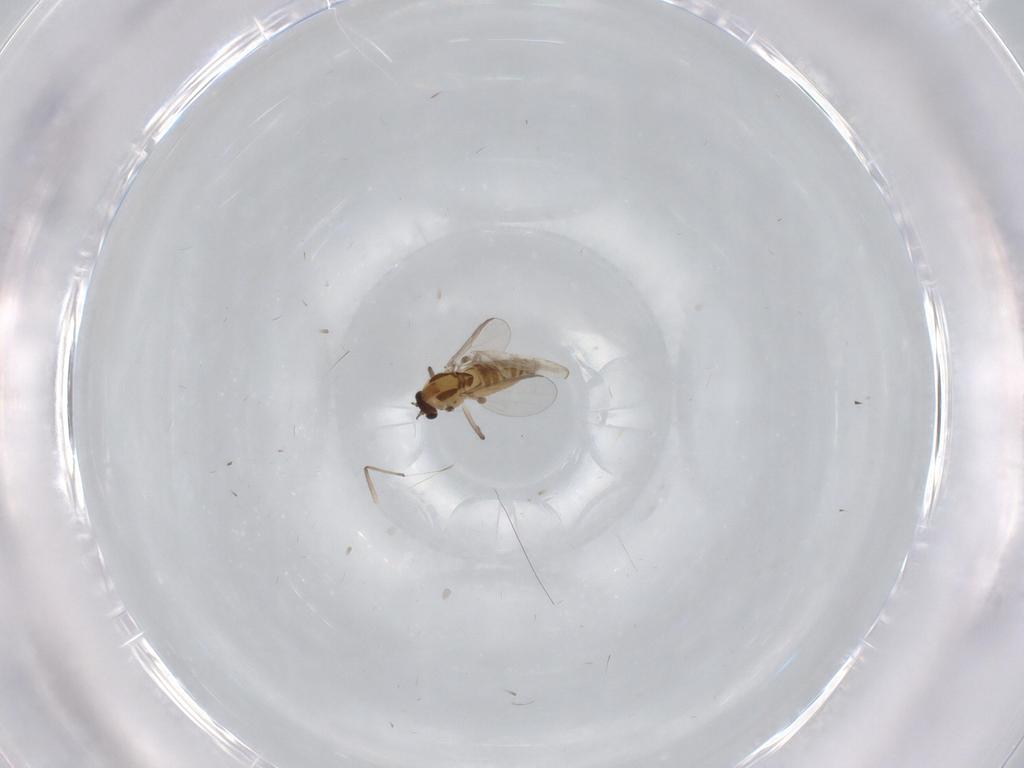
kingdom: Animalia
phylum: Arthropoda
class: Insecta
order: Diptera
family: Chironomidae
